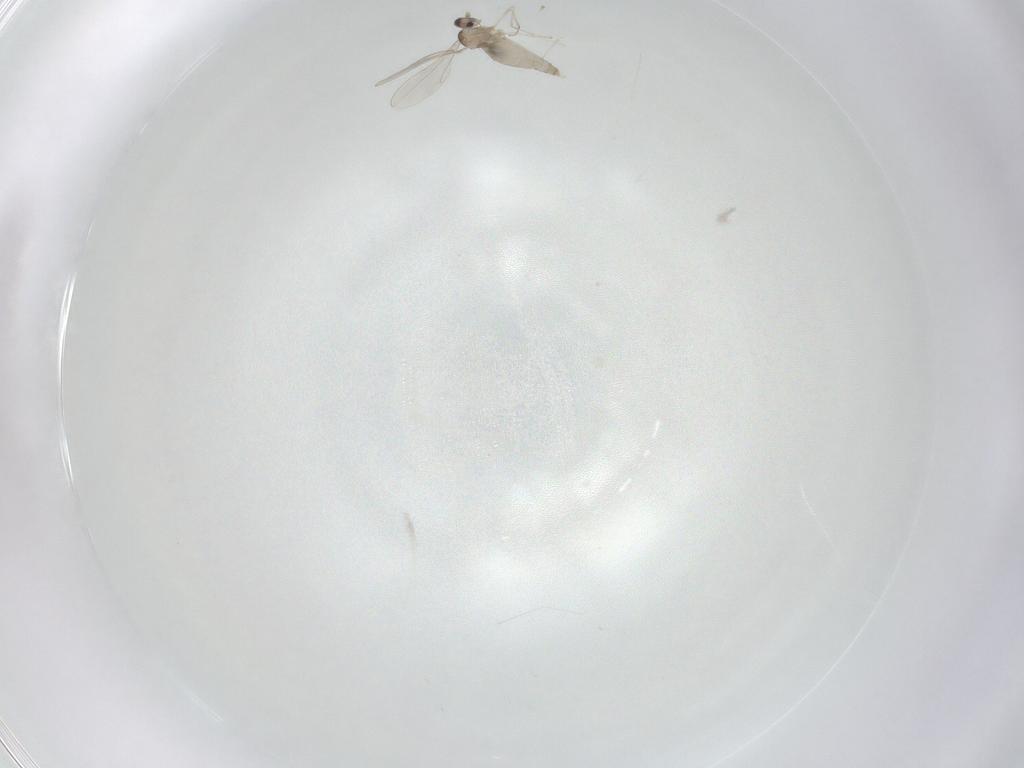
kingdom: Animalia
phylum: Arthropoda
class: Insecta
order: Diptera
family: Cecidomyiidae
